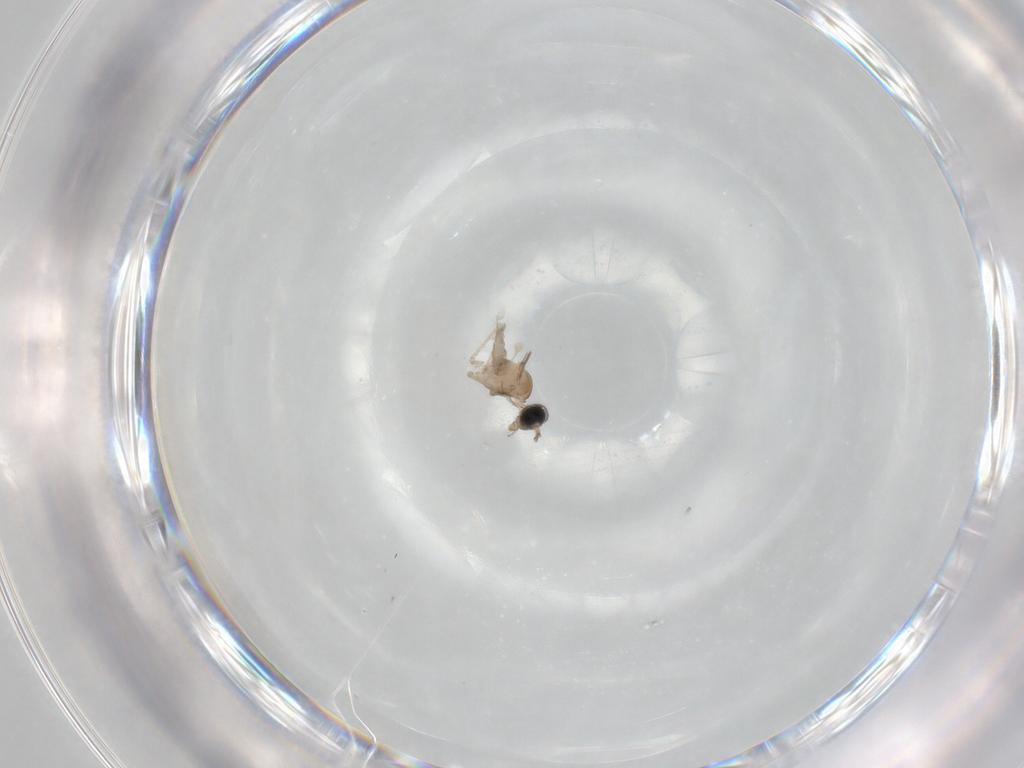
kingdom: Animalia
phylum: Arthropoda
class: Insecta
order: Diptera
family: Cecidomyiidae
